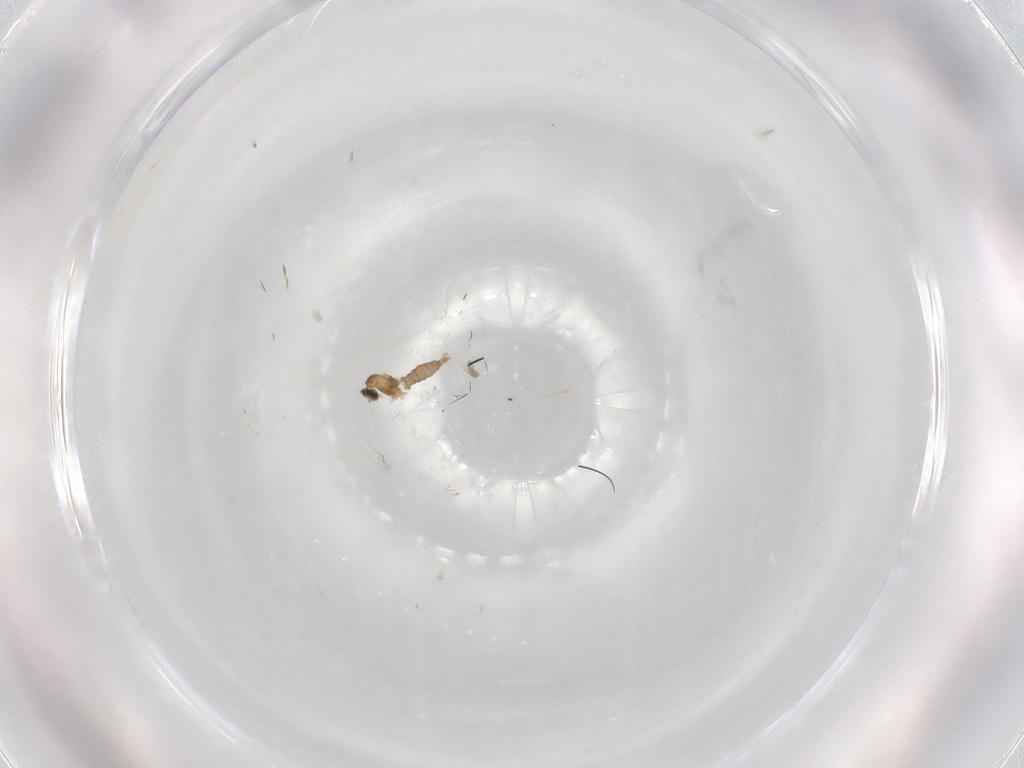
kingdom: Animalia
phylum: Arthropoda
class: Insecta
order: Diptera
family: Cecidomyiidae
